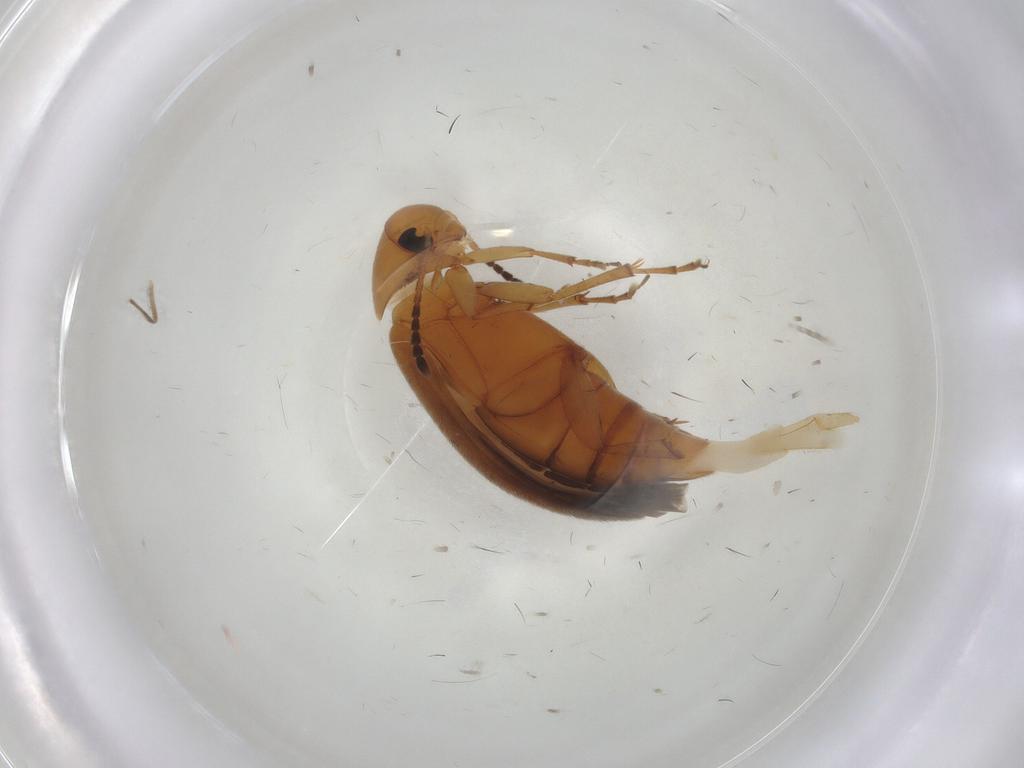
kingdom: Animalia
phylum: Arthropoda
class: Insecta
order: Coleoptera
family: Scraptiidae
